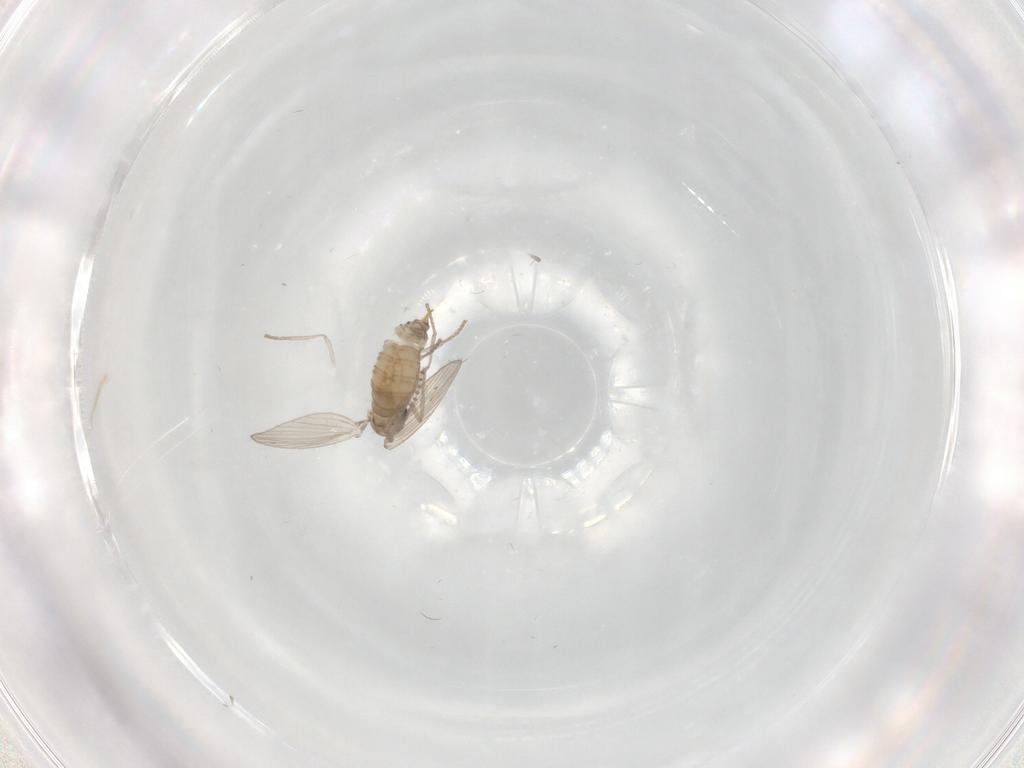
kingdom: Animalia
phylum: Arthropoda
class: Insecta
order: Diptera
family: Psychodidae
